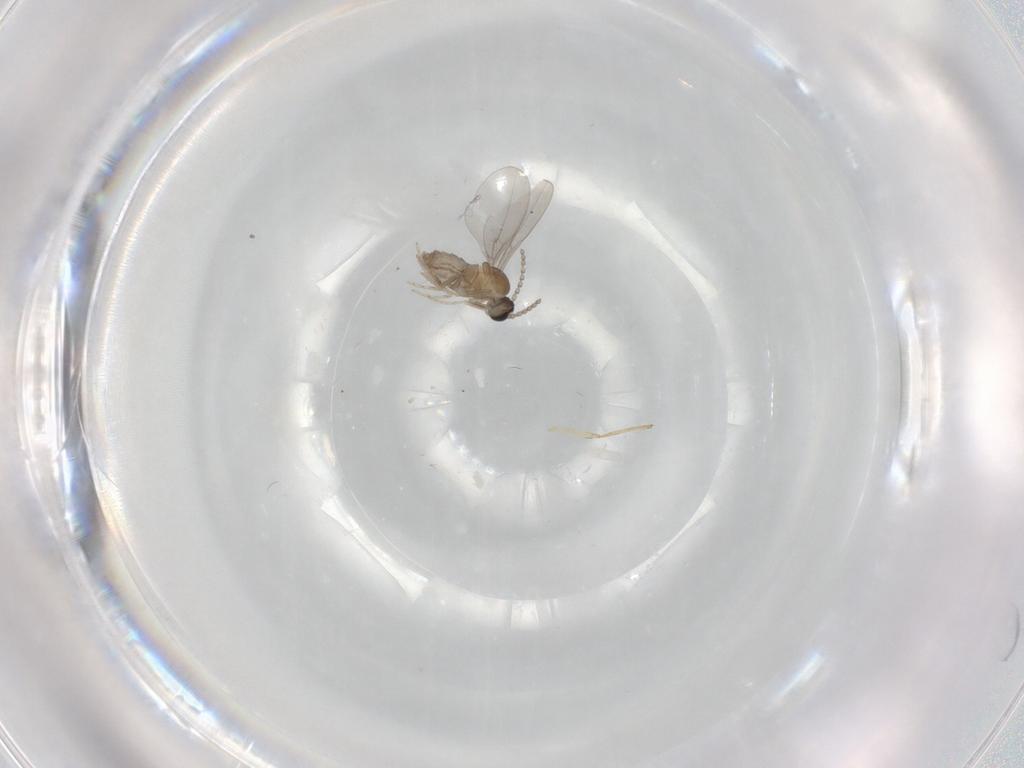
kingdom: Animalia
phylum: Arthropoda
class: Insecta
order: Diptera
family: Cecidomyiidae
